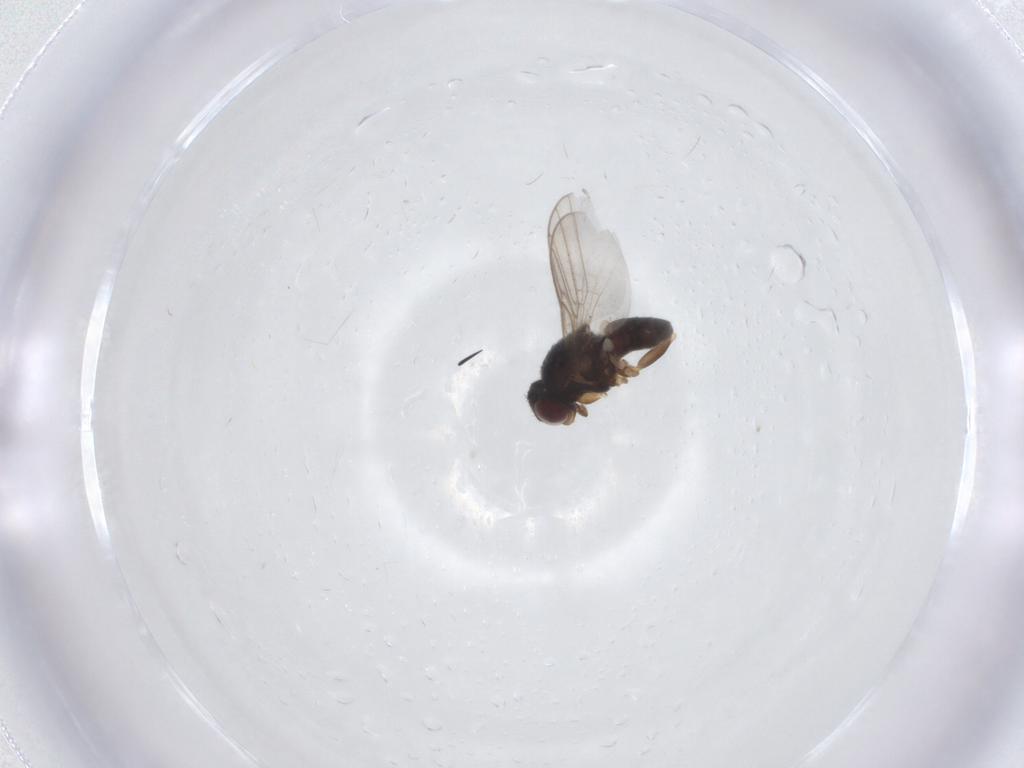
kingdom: Animalia
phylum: Arthropoda
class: Insecta
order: Diptera
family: Chloropidae
